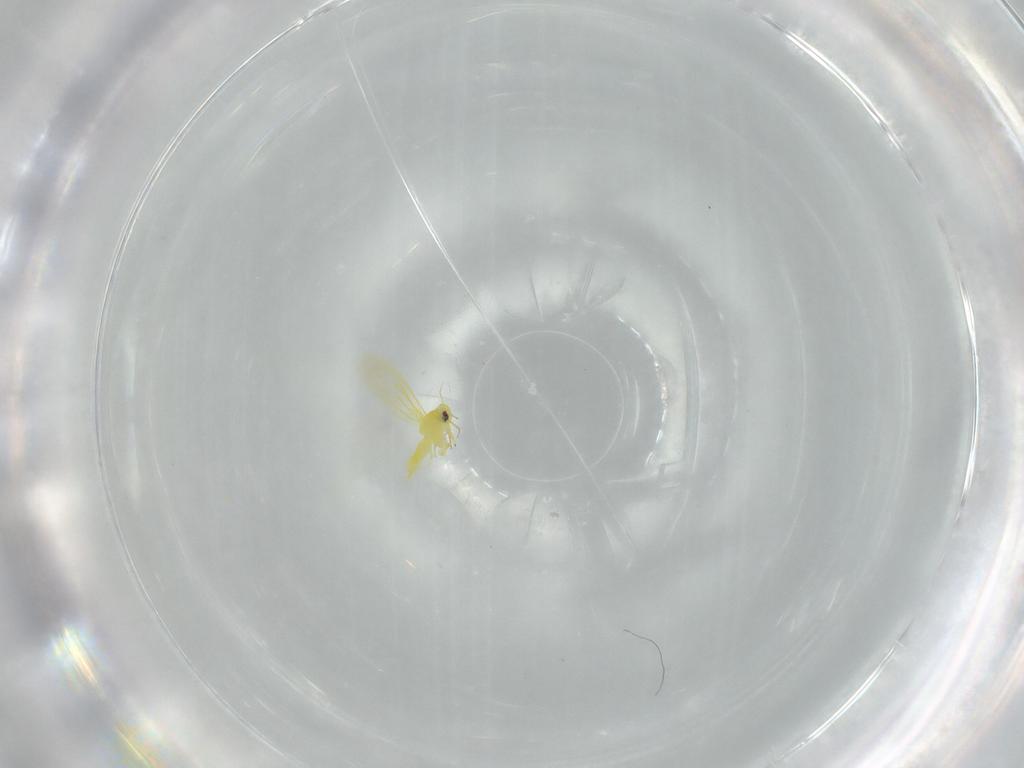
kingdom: Animalia
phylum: Arthropoda
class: Insecta
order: Hemiptera
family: Aleyrodidae
